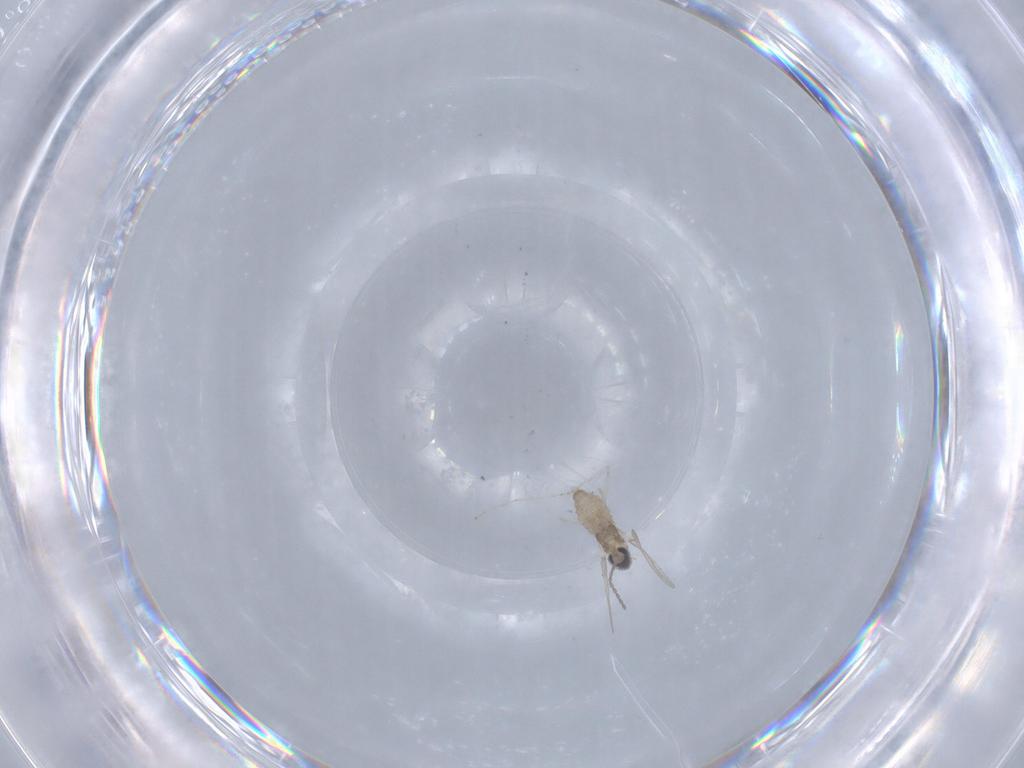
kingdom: Animalia
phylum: Arthropoda
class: Insecta
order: Diptera
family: Cecidomyiidae
